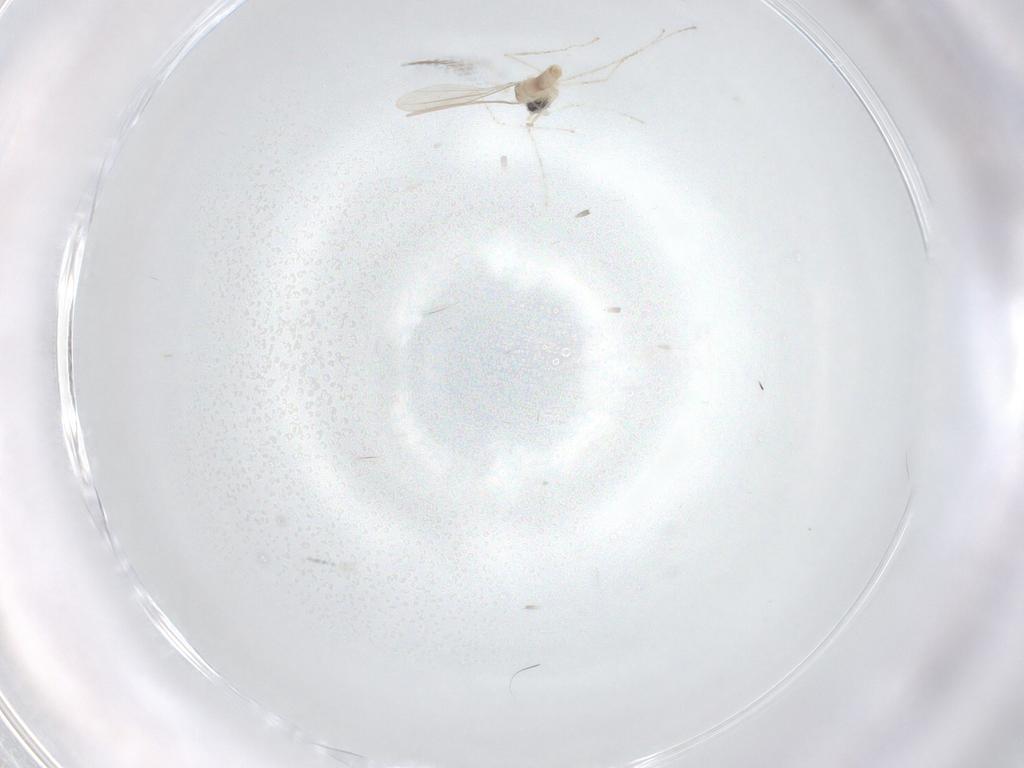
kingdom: Animalia
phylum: Arthropoda
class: Insecta
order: Diptera
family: Cecidomyiidae
